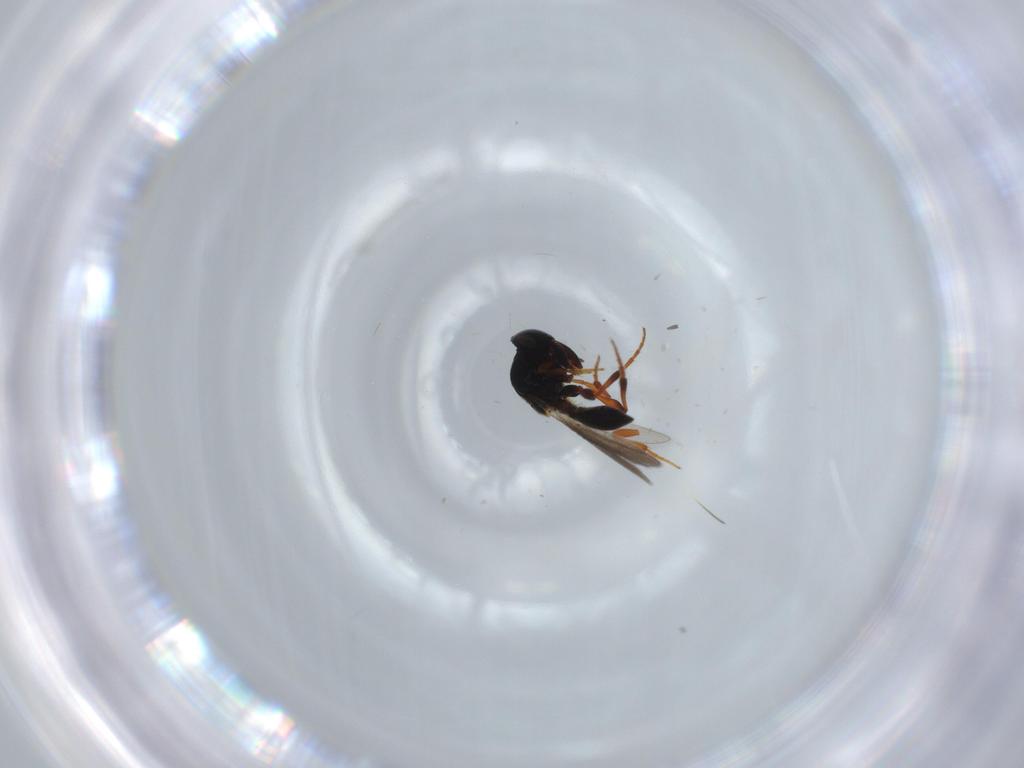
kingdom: Animalia
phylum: Arthropoda
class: Insecta
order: Hymenoptera
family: Platygastridae
